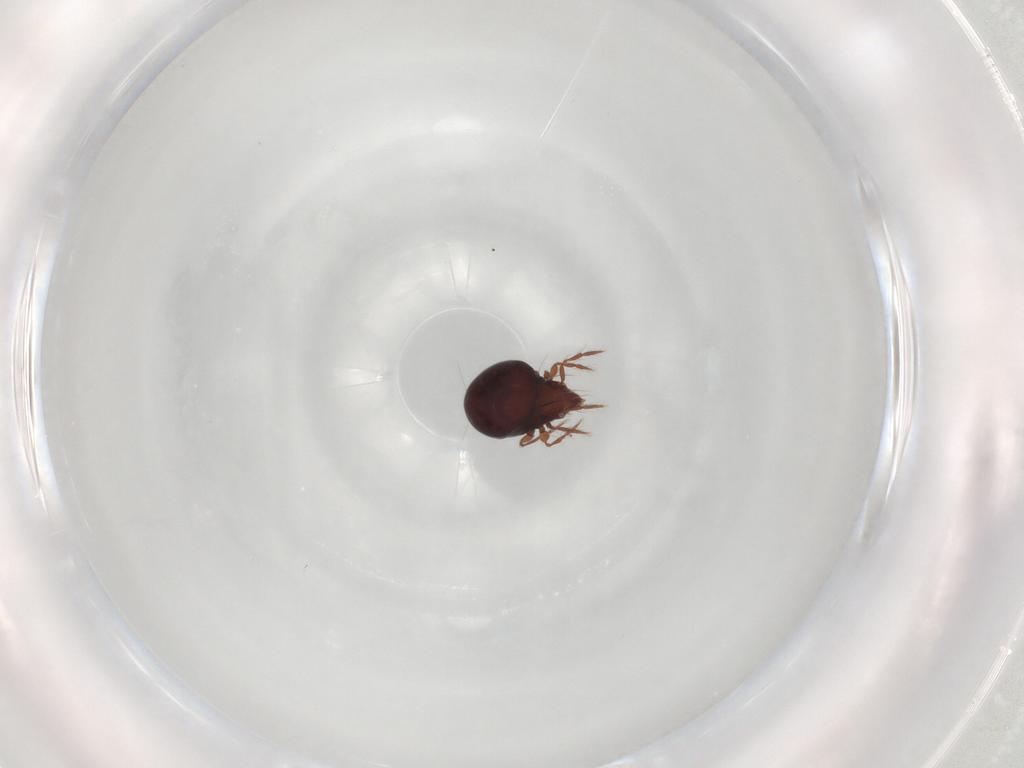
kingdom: Animalia
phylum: Arthropoda
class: Arachnida
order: Sarcoptiformes
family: Ceratoppiidae
